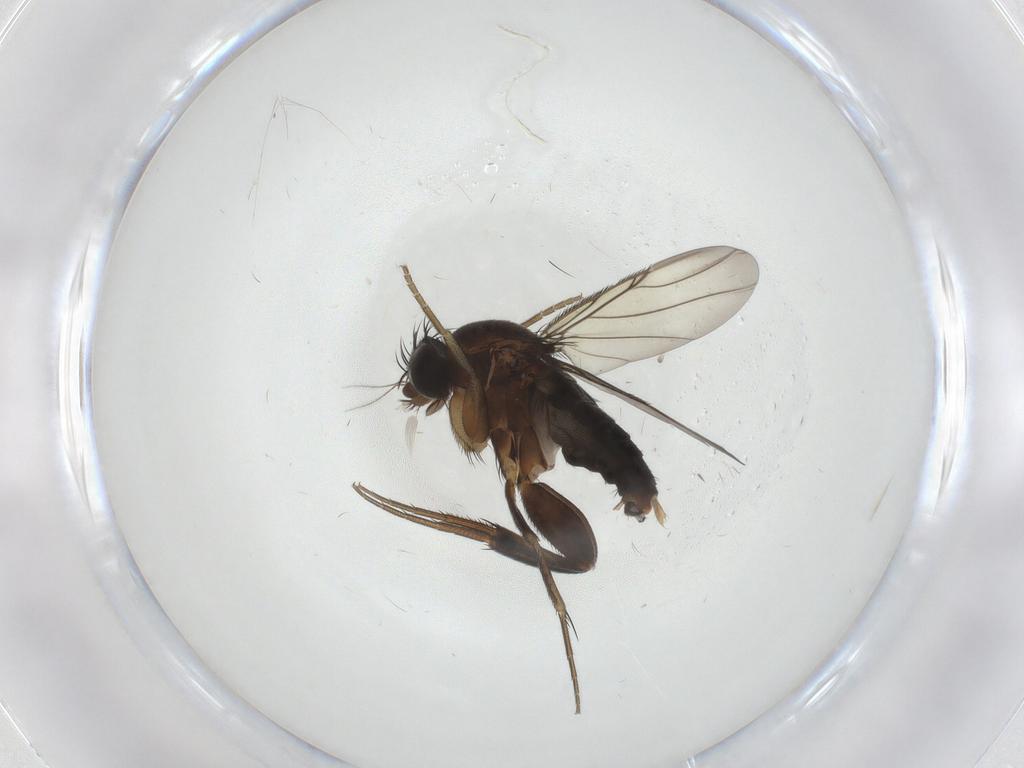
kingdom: Animalia
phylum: Arthropoda
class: Insecta
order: Diptera
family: Phoridae
